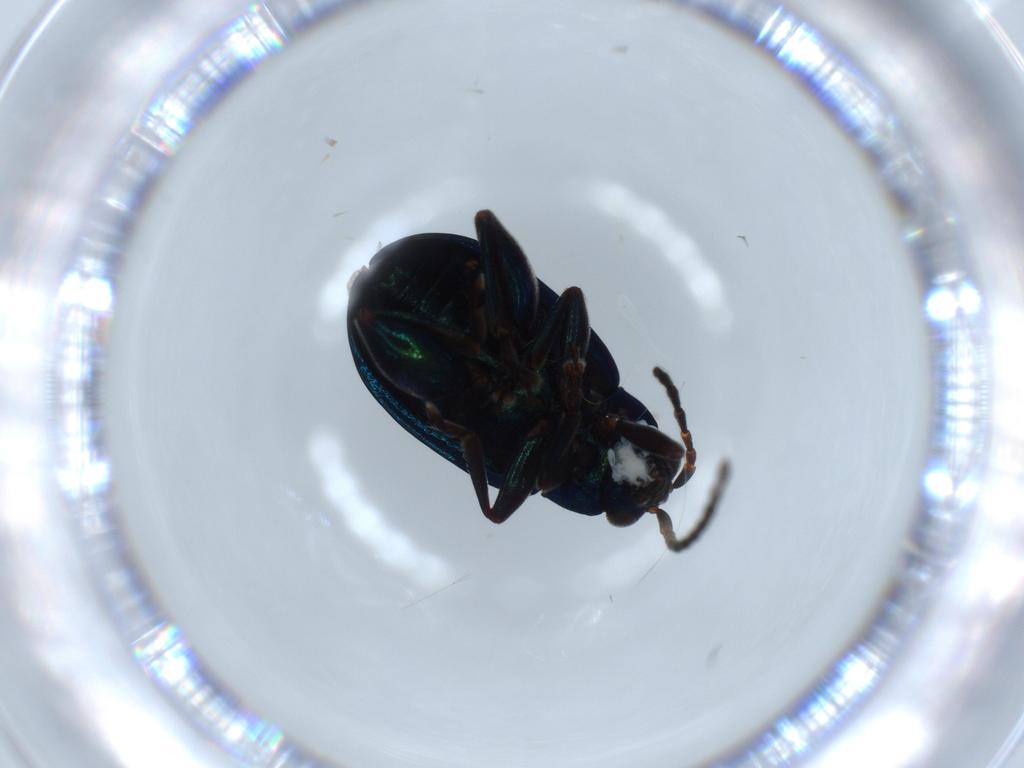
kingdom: Animalia
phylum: Arthropoda
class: Insecta
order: Coleoptera
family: Chrysomelidae
